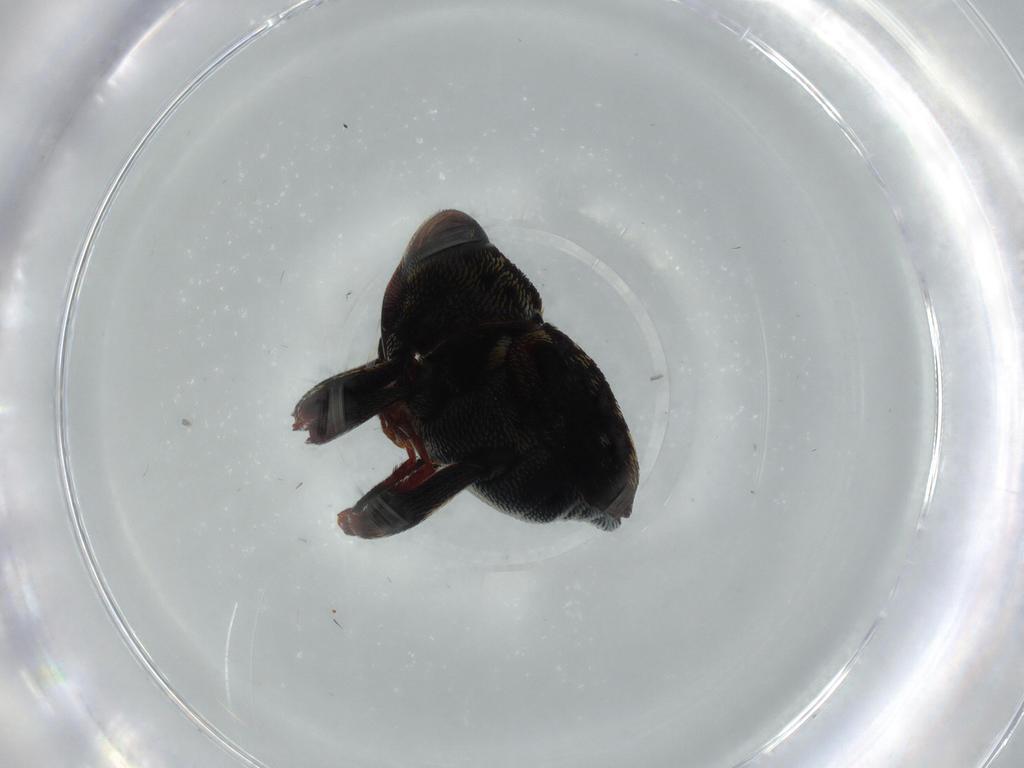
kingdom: Animalia
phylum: Arthropoda
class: Insecta
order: Coleoptera
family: Curculionidae
